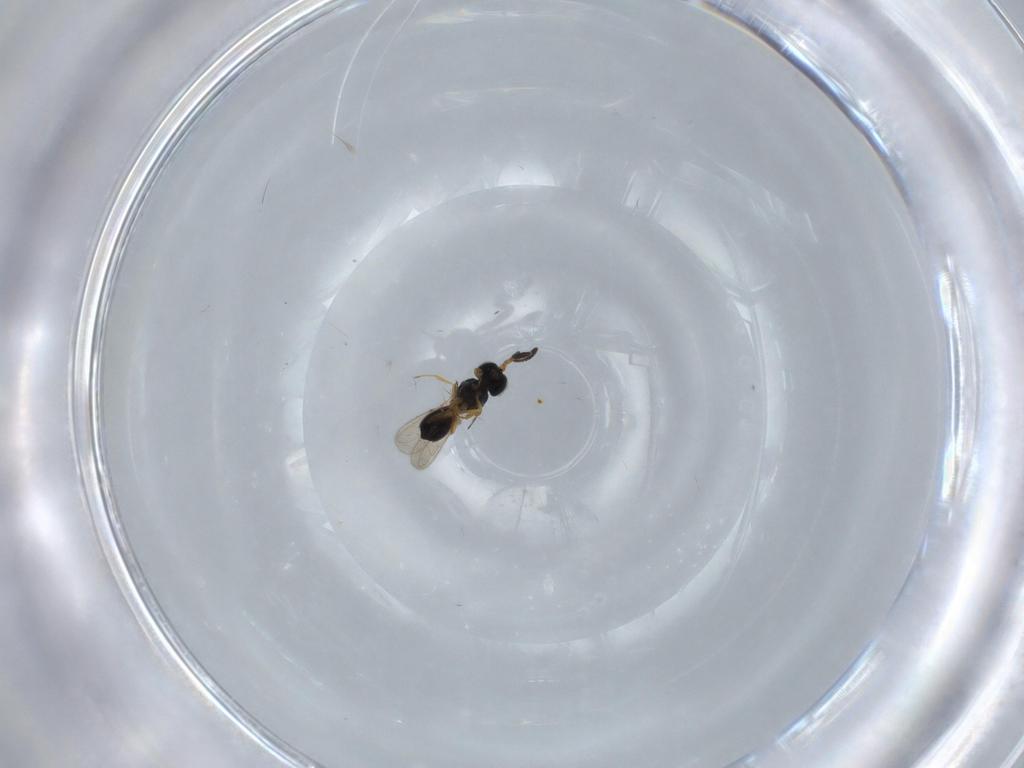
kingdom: Animalia
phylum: Arthropoda
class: Insecta
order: Hymenoptera
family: Scelionidae
